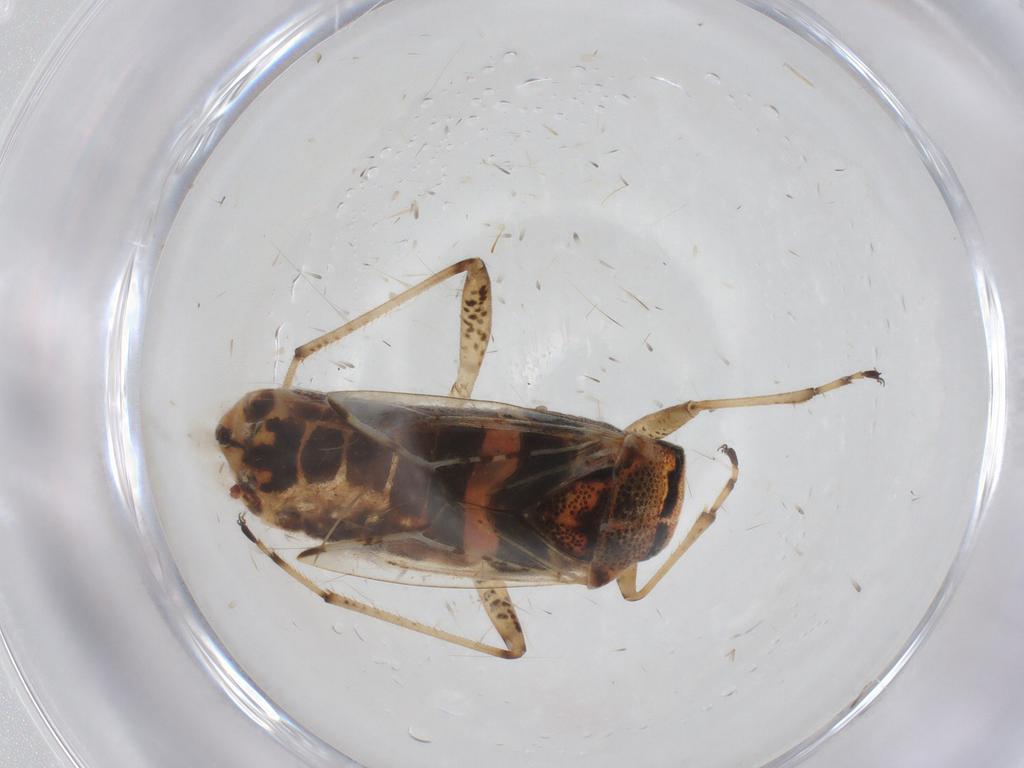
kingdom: Animalia
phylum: Arthropoda
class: Insecta
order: Hemiptera
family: Lygaeidae
